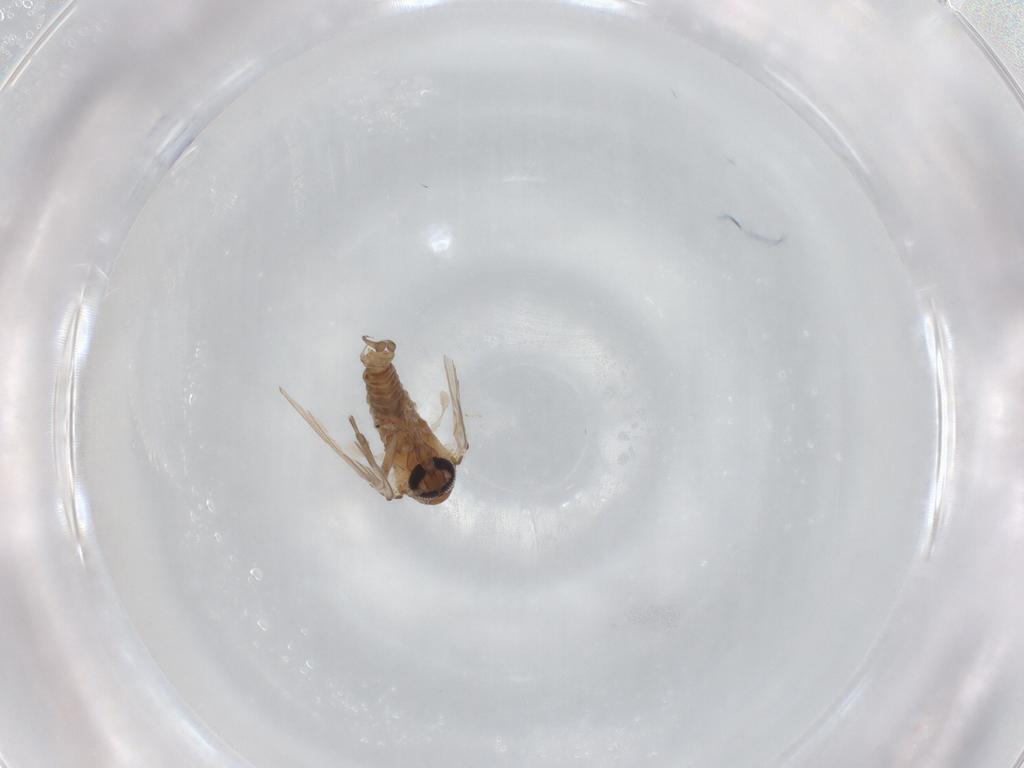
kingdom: Animalia
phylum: Arthropoda
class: Insecta
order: Diptera
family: Psychodidae
